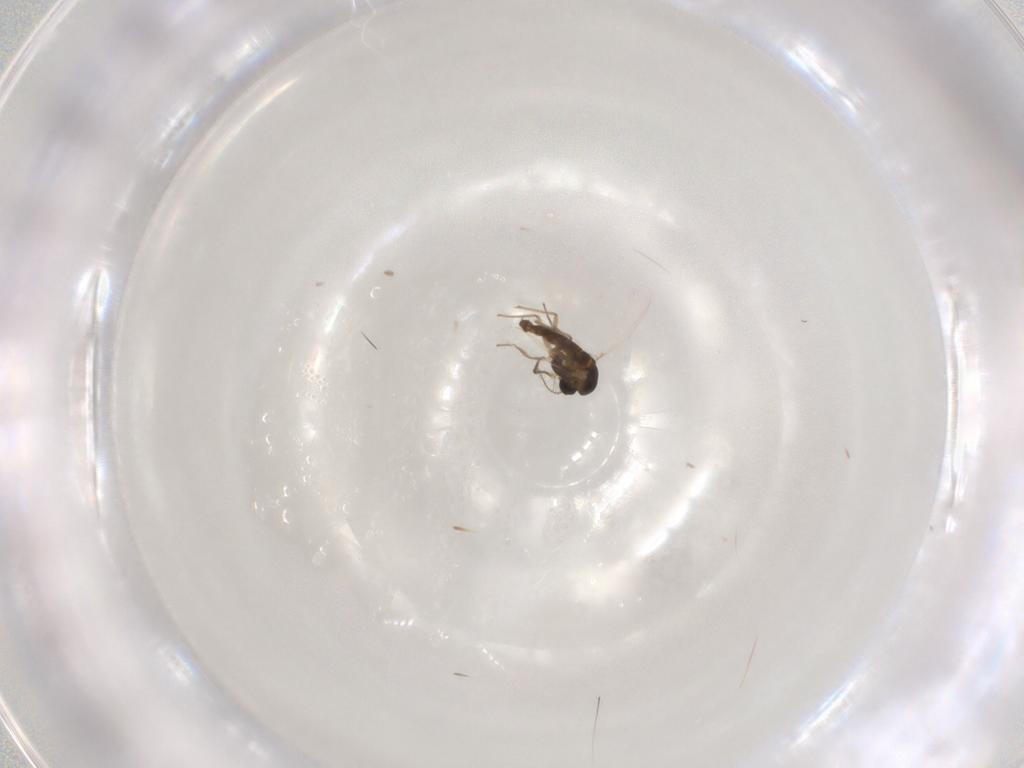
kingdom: Animalia
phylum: Arthropoda
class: Insecta
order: Diptera
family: Chironomidae
